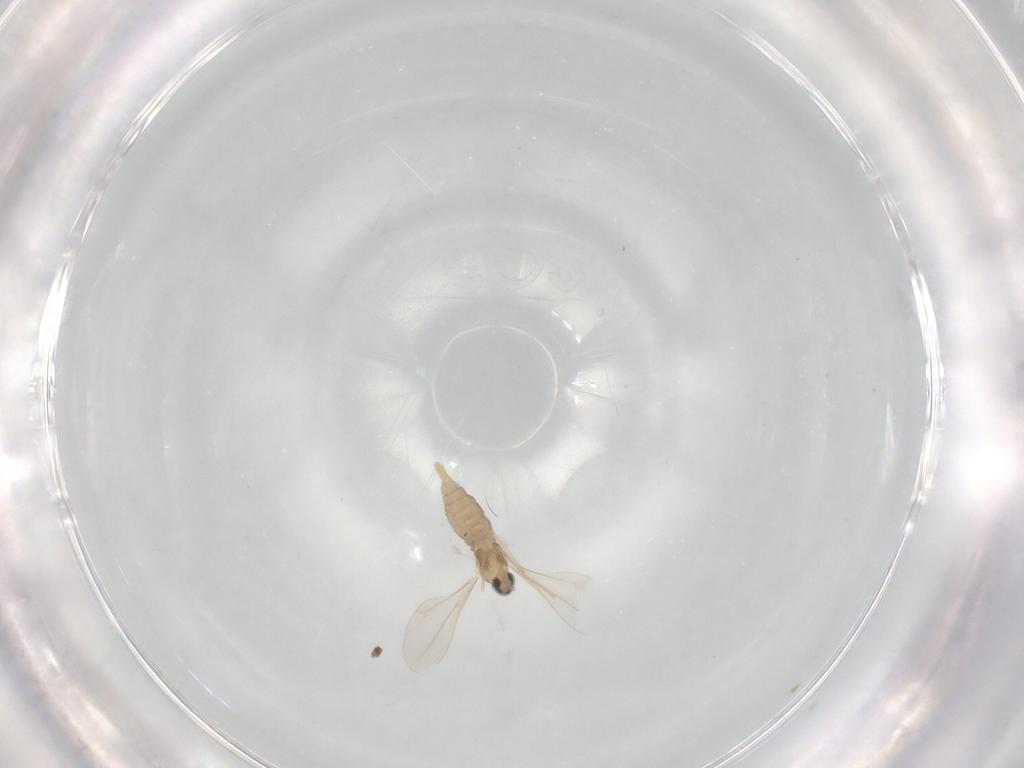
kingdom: Animalia
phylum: Arthropoda
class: Insecta
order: Diptera
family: Cecidomyiidae
